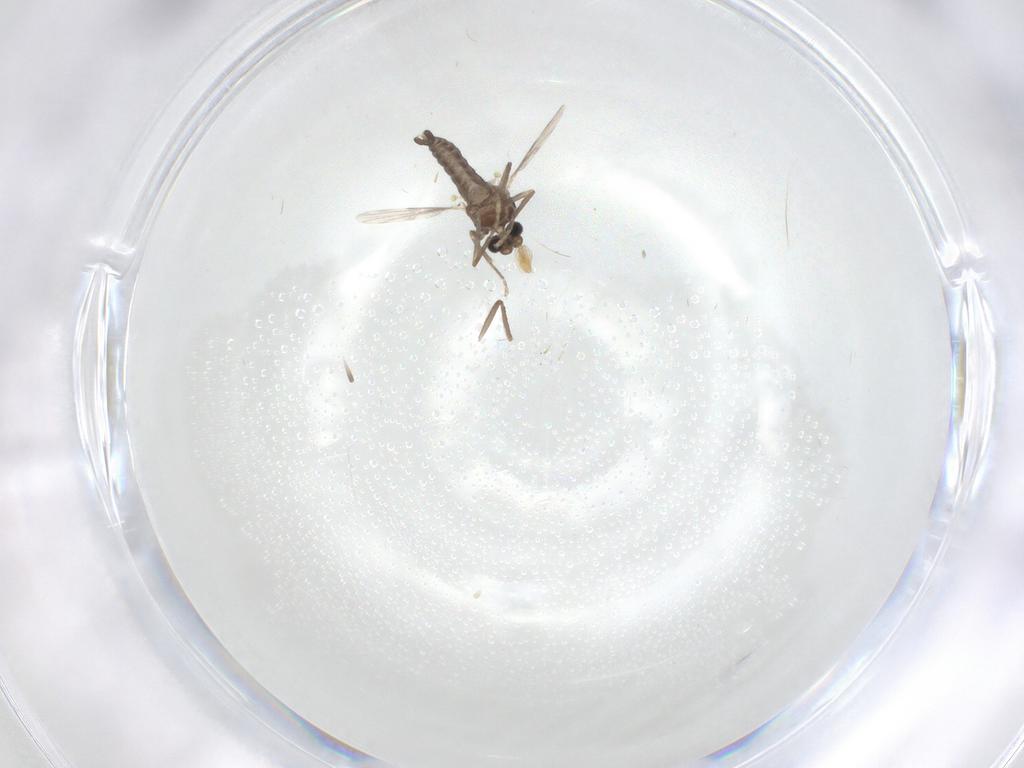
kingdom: Animalia
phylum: Arthropoda
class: Insecta
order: Diptera
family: Ceratopogonidae
